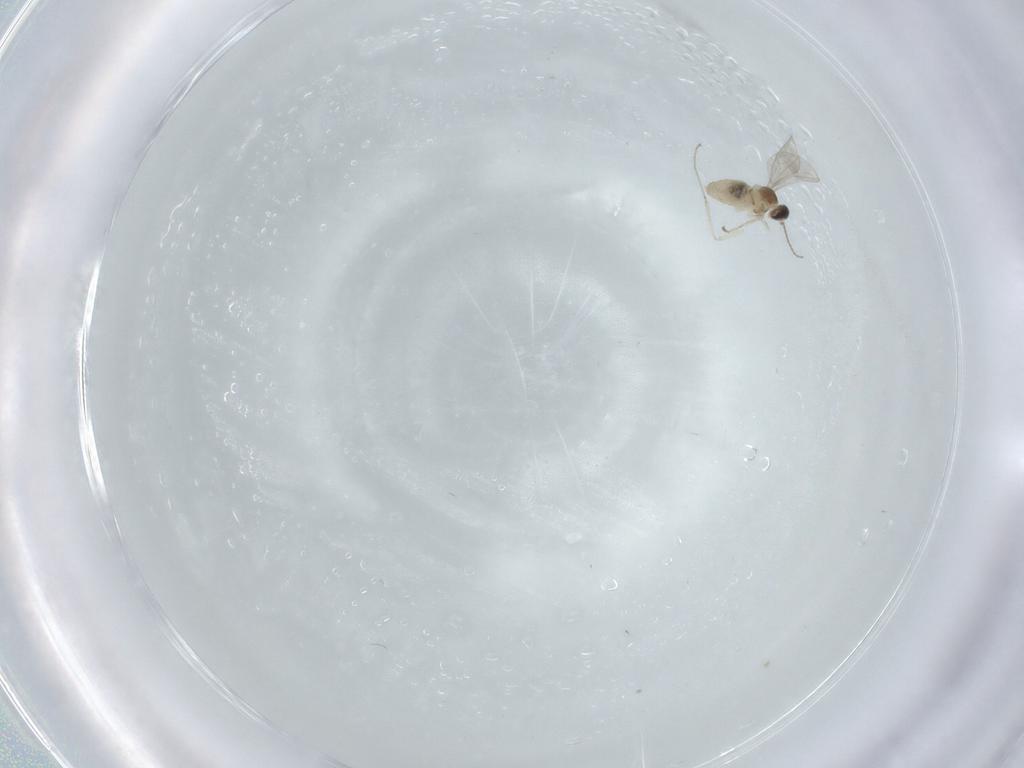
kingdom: Animalia
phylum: Arthropoda
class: Insecta
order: Diptera
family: Cecidomyiidae
